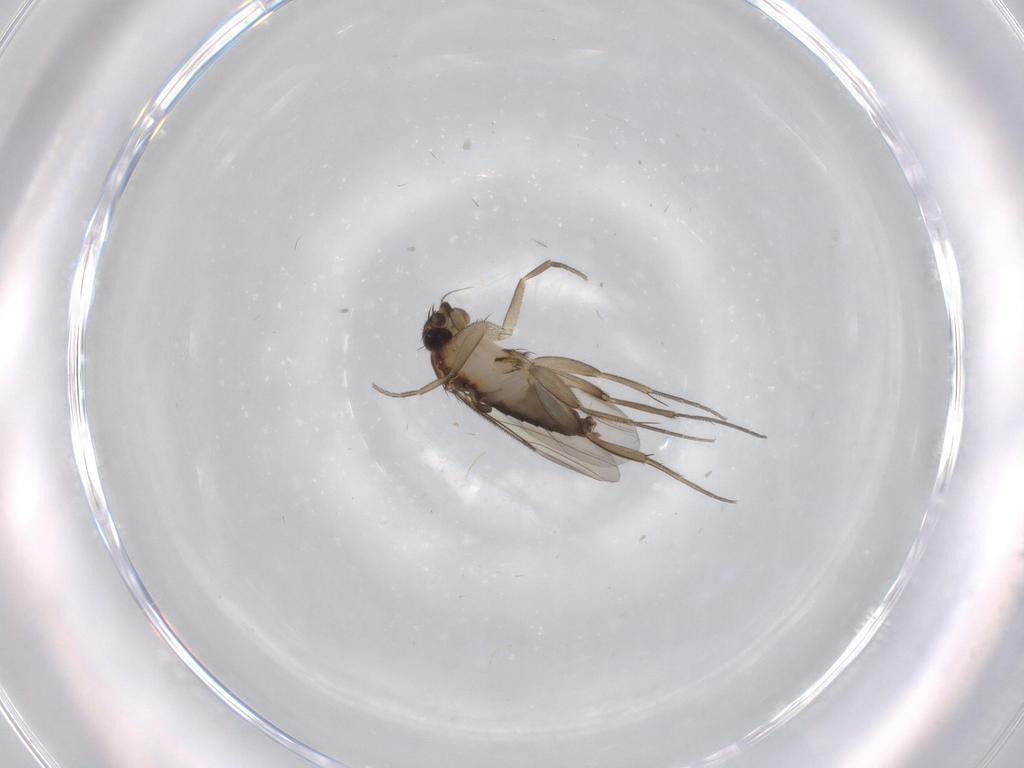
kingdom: Animalia
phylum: Arthropoda
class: Insecta
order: Diptera
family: Phoridae
